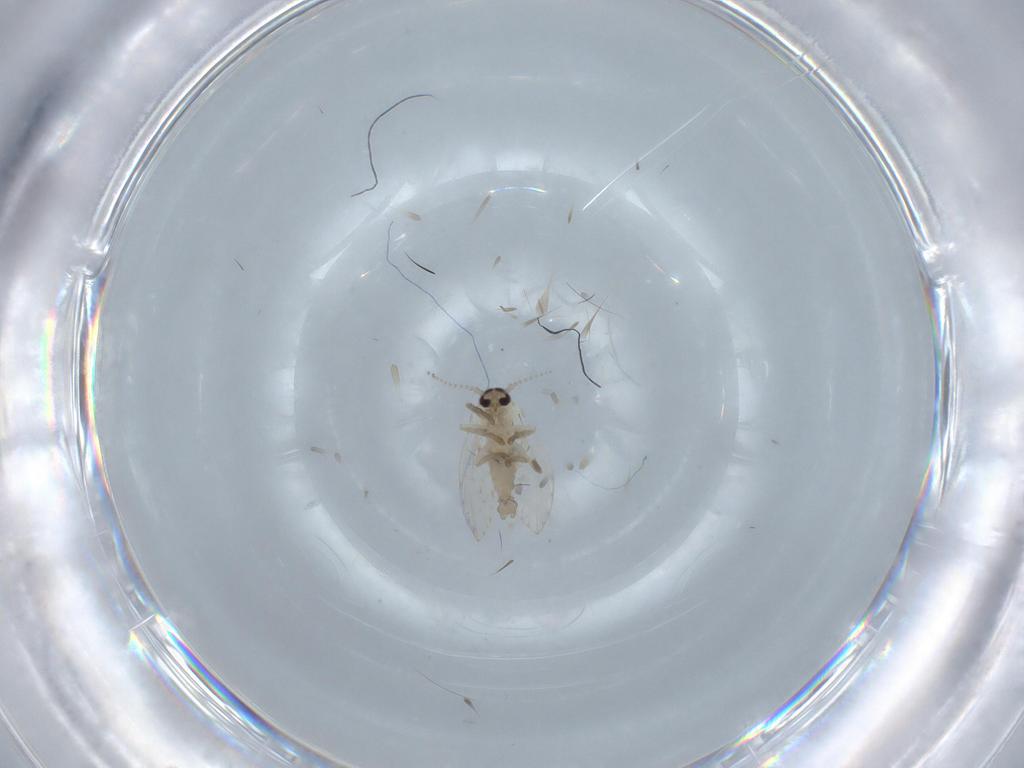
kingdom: Animalia
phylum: Arthropoda
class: Insecta
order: Diptera
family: Psychodidae
